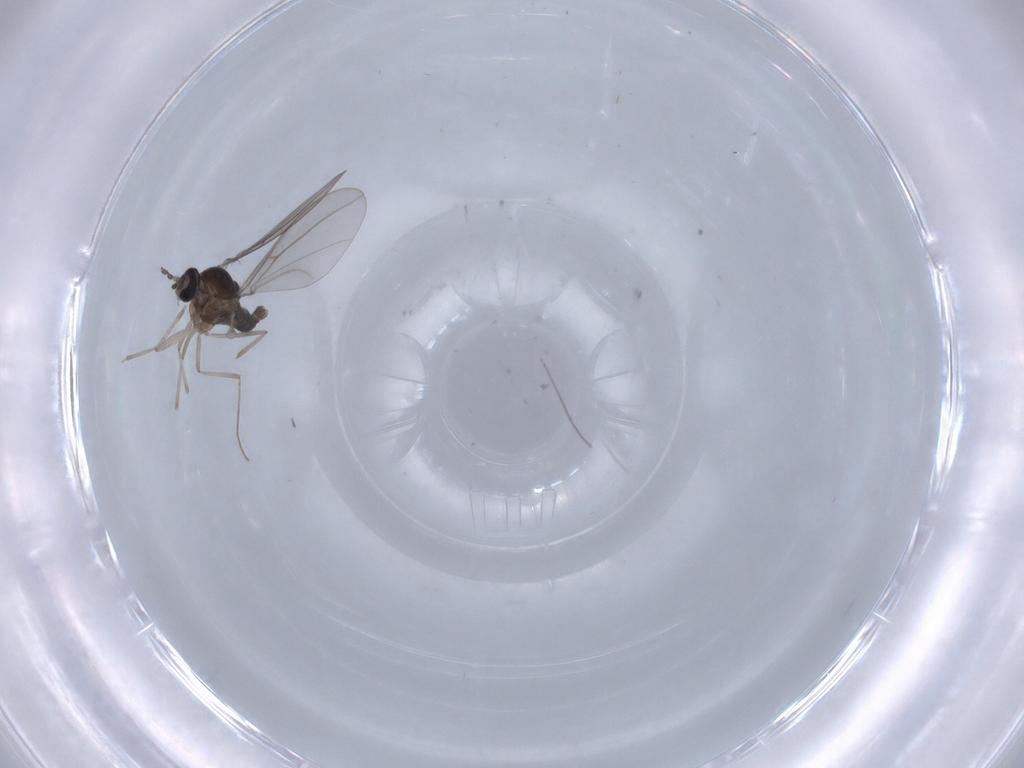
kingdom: Animalia
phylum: Arthropoda
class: Insecta
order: Diptera
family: Cecidomyiidae
